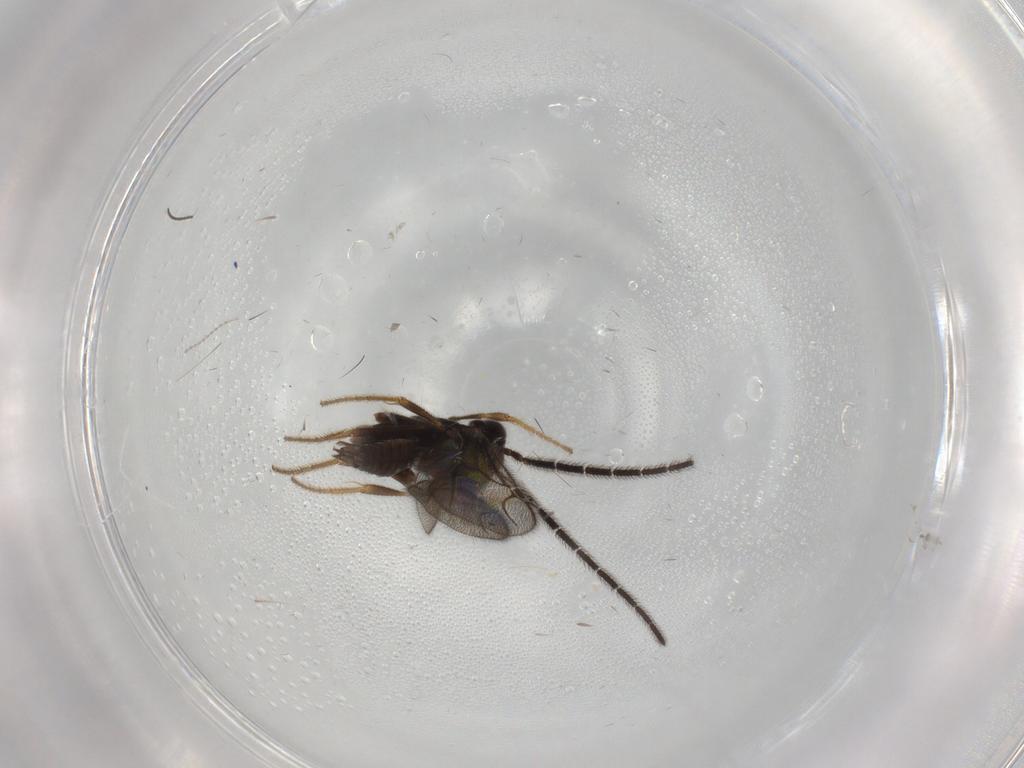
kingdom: Animalia
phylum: Arthropoda
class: Insecta
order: Hymenoptera
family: Dryinidae
